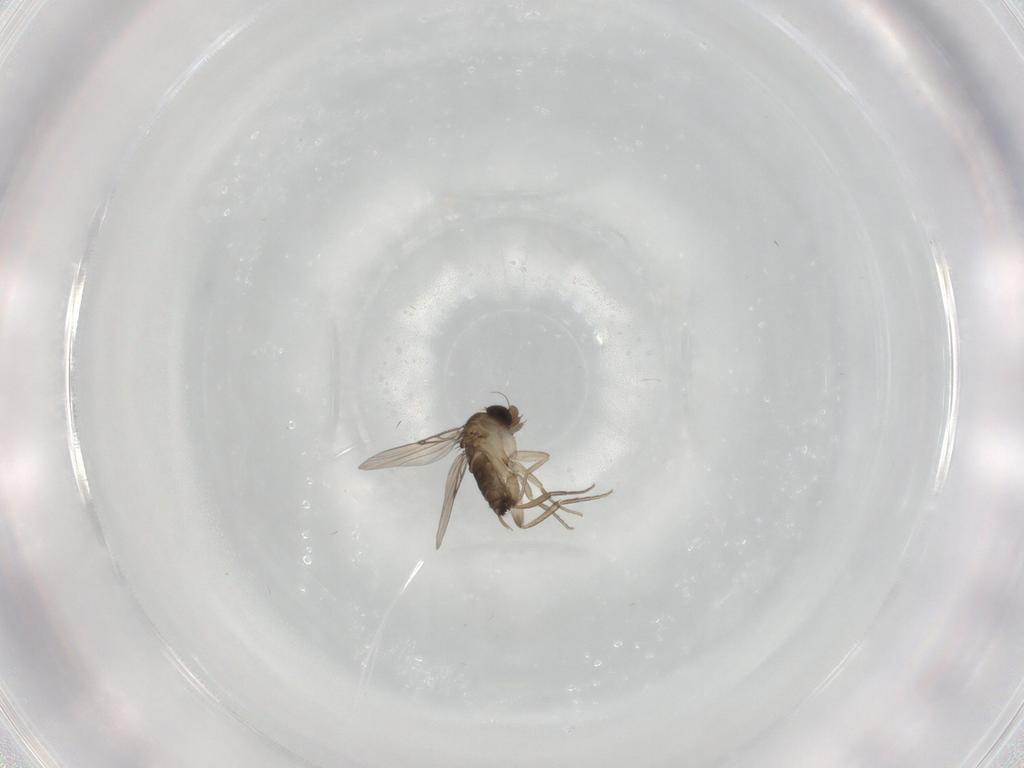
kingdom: Animalia
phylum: Arthropoda
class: Insecta
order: Diptera
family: Phoridae
